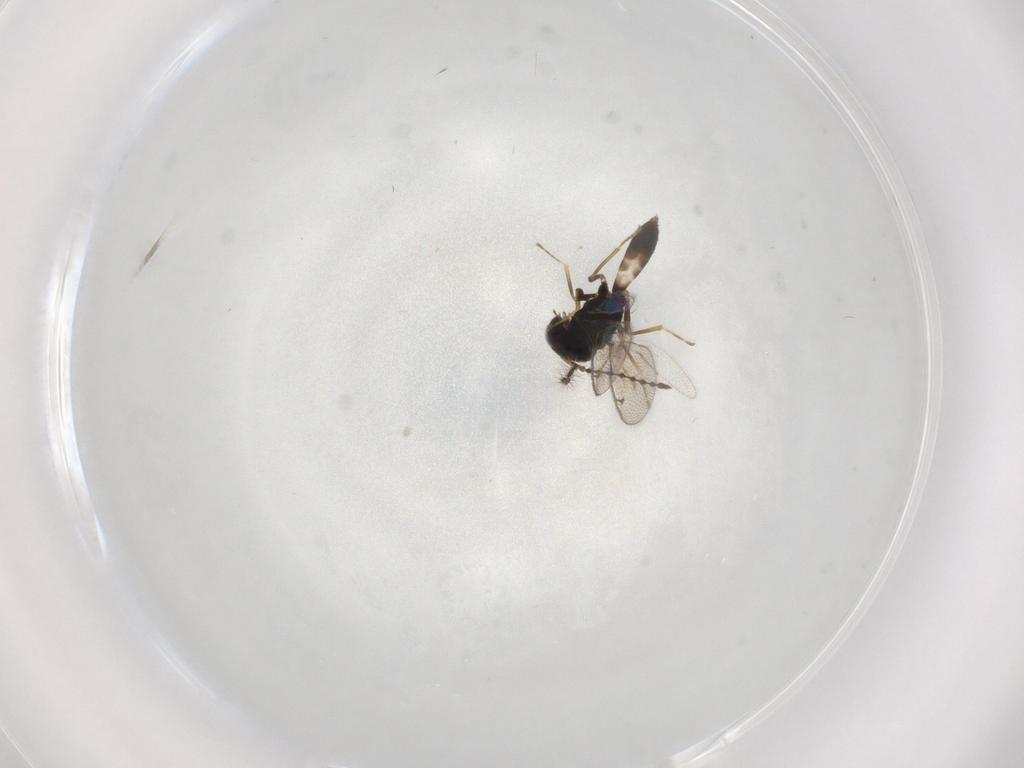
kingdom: Animalia
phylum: Arthropoda
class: Insecta
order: Hymenoptera
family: Pteromalidae
